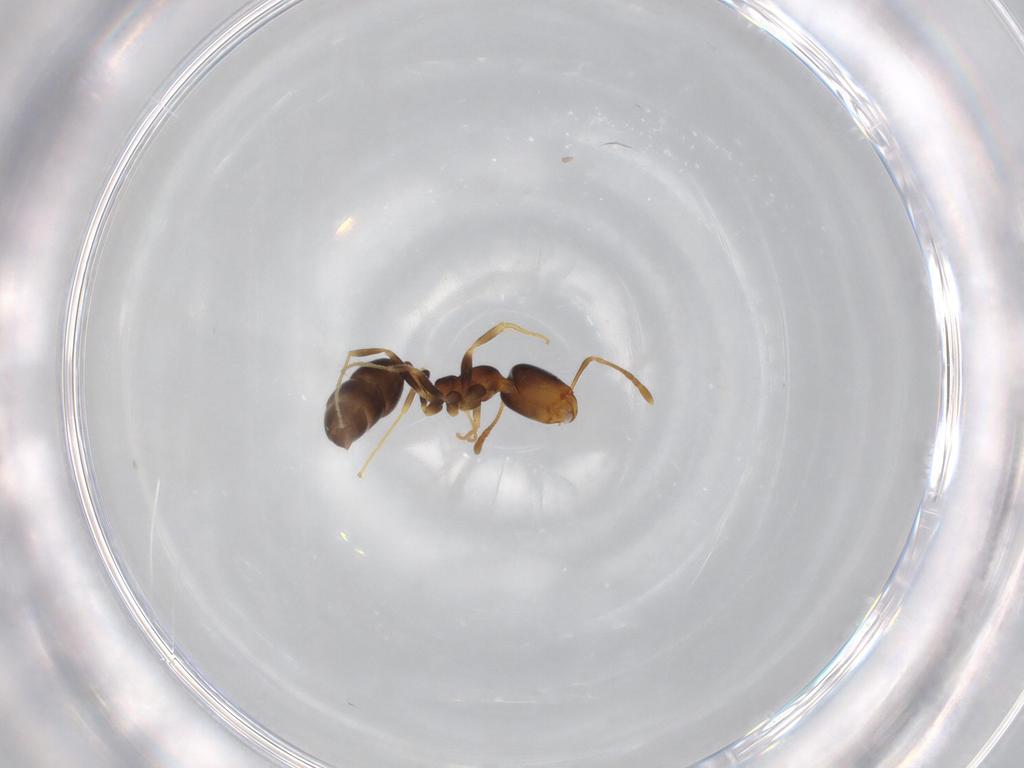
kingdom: Animalia
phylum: Arthropoda
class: Insecta
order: Hymenoptera
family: Formicidae
